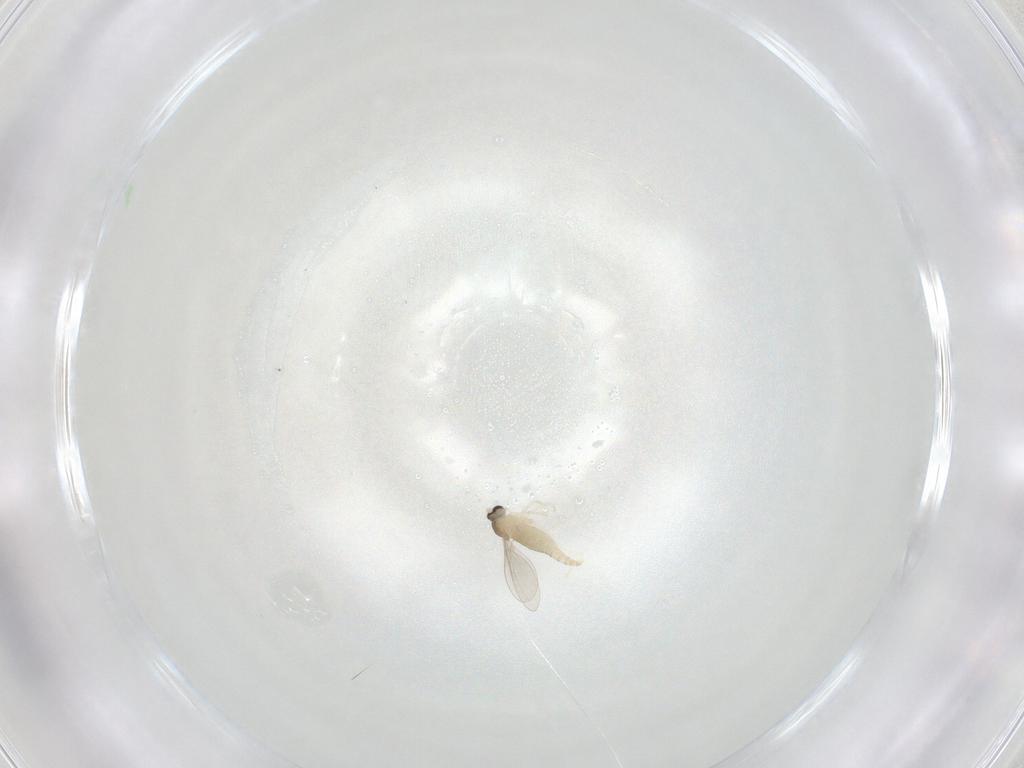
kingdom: Animalia
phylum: Arthropoda
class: Insecta
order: Diptera
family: Cecidomyiidae
